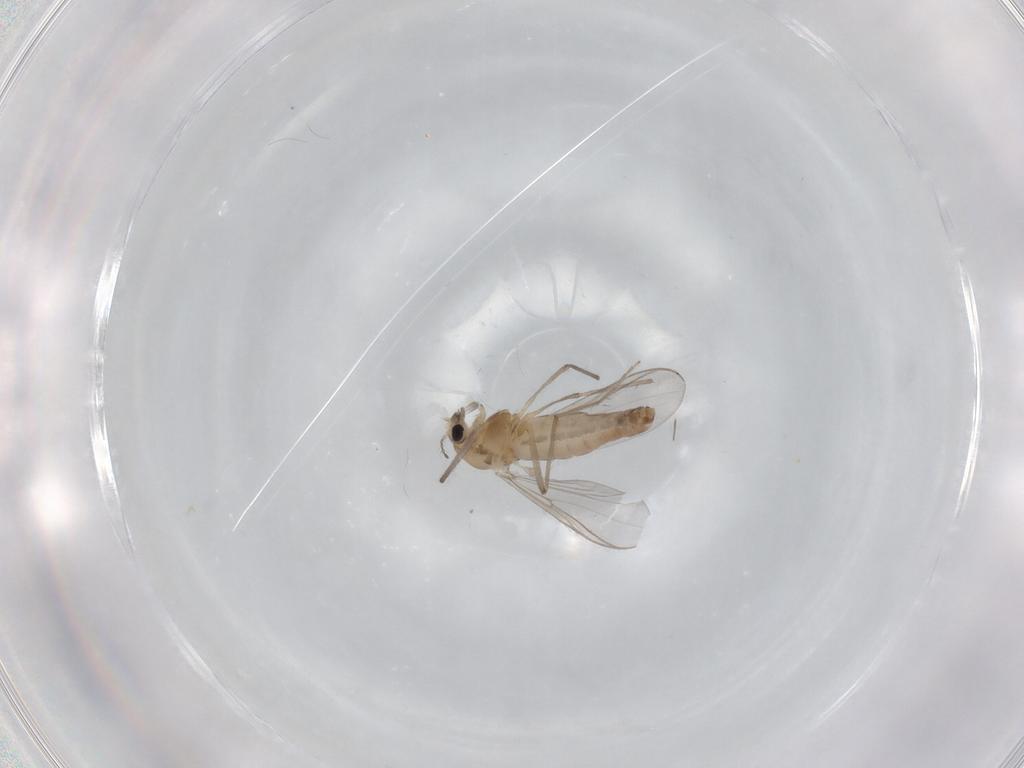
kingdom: Animalia
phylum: Arthropoda
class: Insecta
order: Diptera
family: Chironomidae
